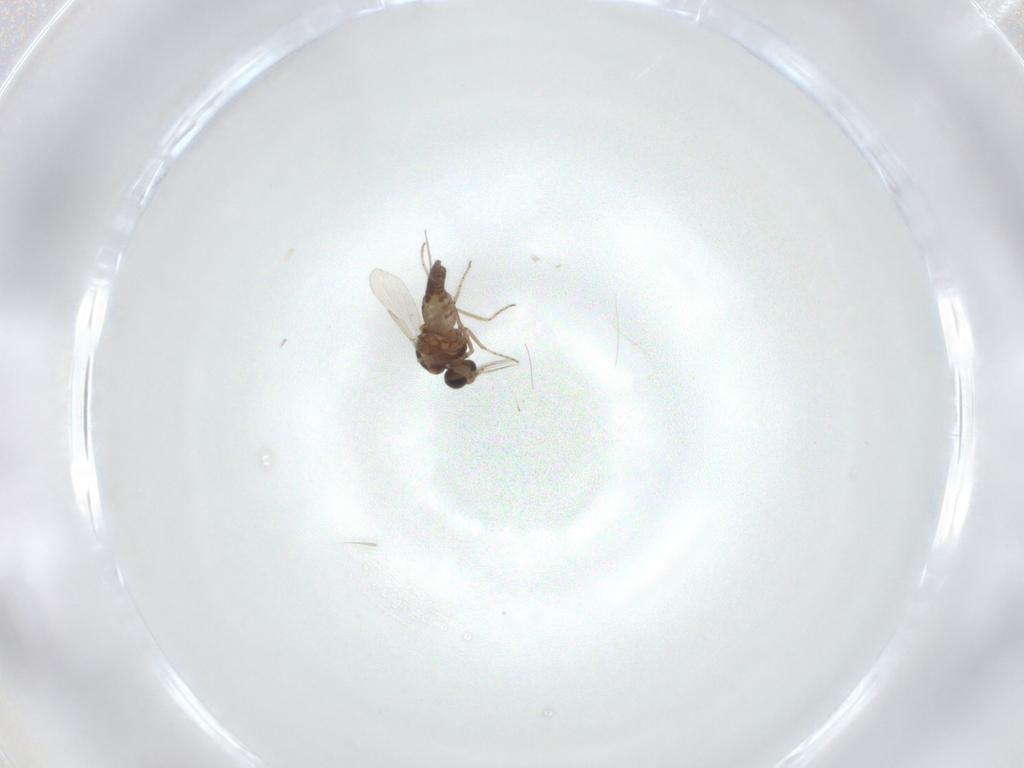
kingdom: Animalia
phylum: Arthropoda
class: Insecta
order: Diptera
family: Ceratopogonidae
